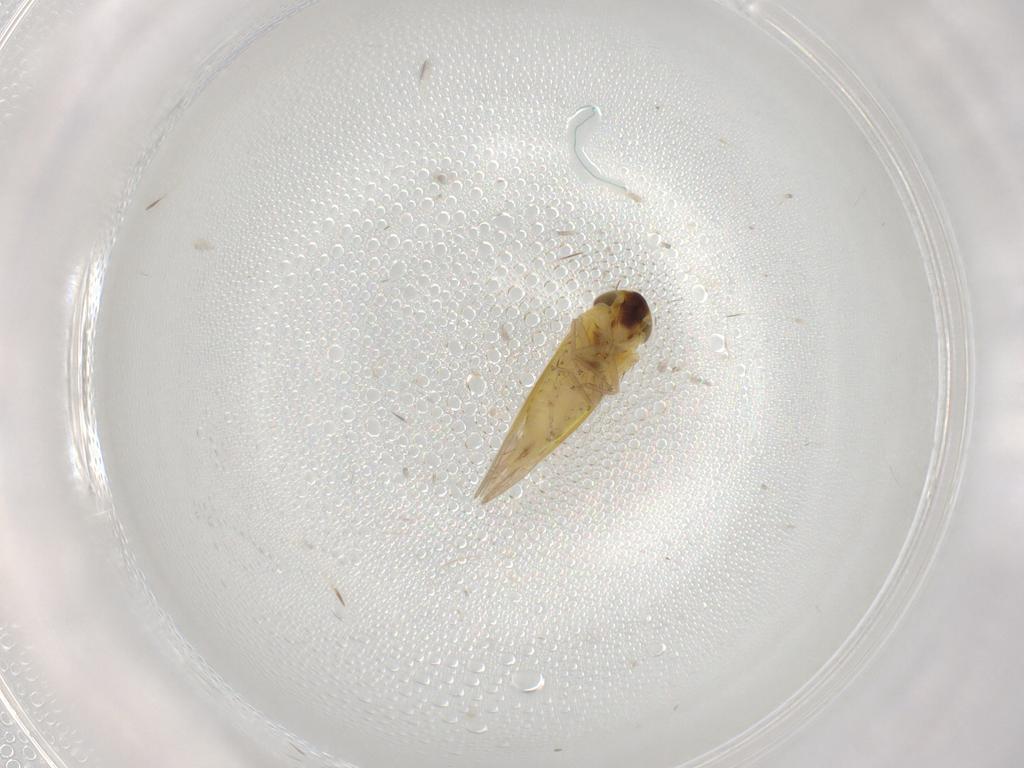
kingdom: Animalia
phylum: Arthropoda
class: Insecta
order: Hemiptera
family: Cicadellidae
